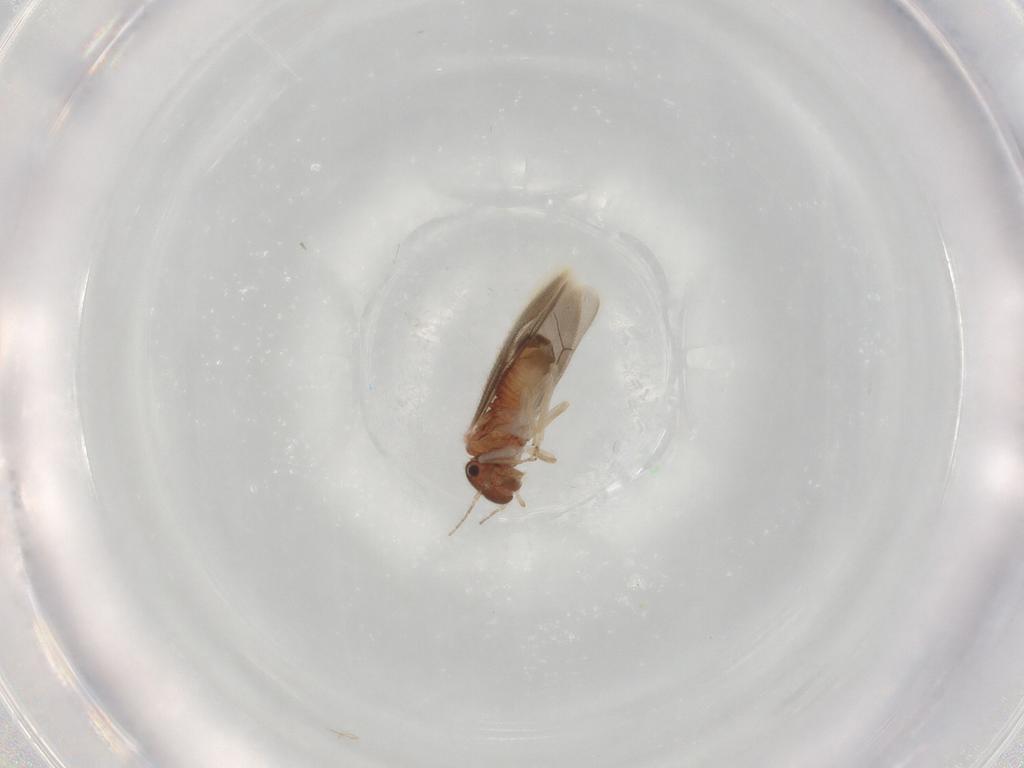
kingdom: Animalia
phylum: Arthropoda
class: Insecta
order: Psocodea
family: Archipsocidae
